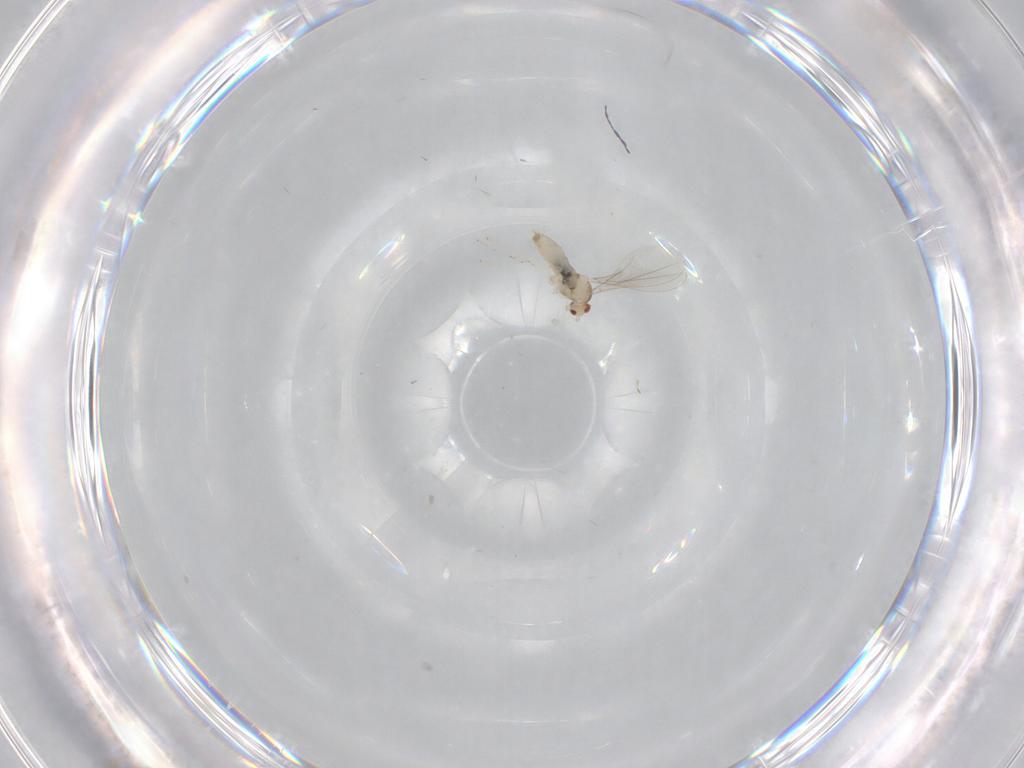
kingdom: Animalia
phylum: Arthropoda
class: Insecta
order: Diptera
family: Cecidomyiidae
